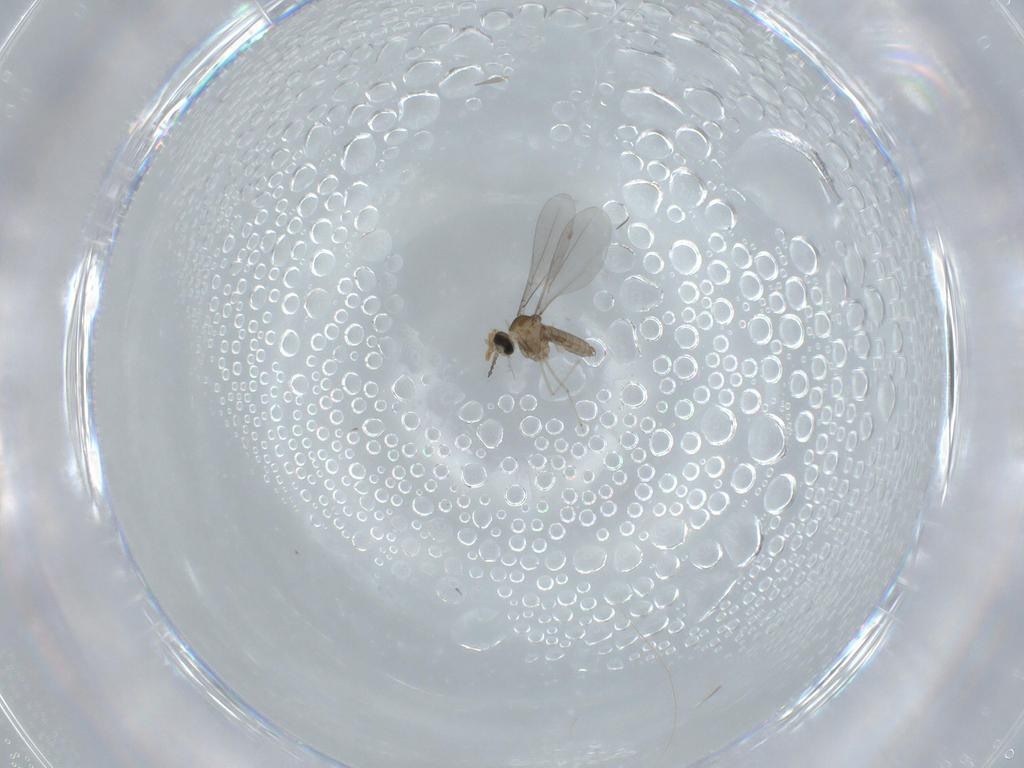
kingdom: Animalia
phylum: Arthropoda
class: Insecta
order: Diptera
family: Cecidomyiidae
